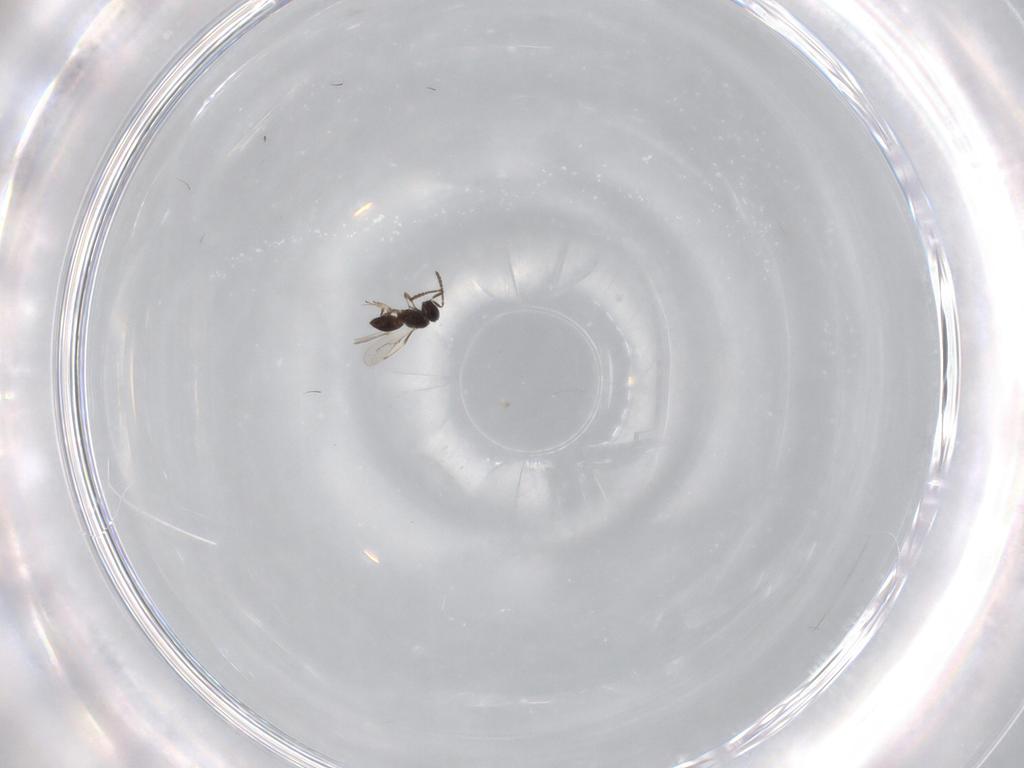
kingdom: Animalia
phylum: Arthropoda
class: Insecta
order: Hymenoptera
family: Scelionidae
